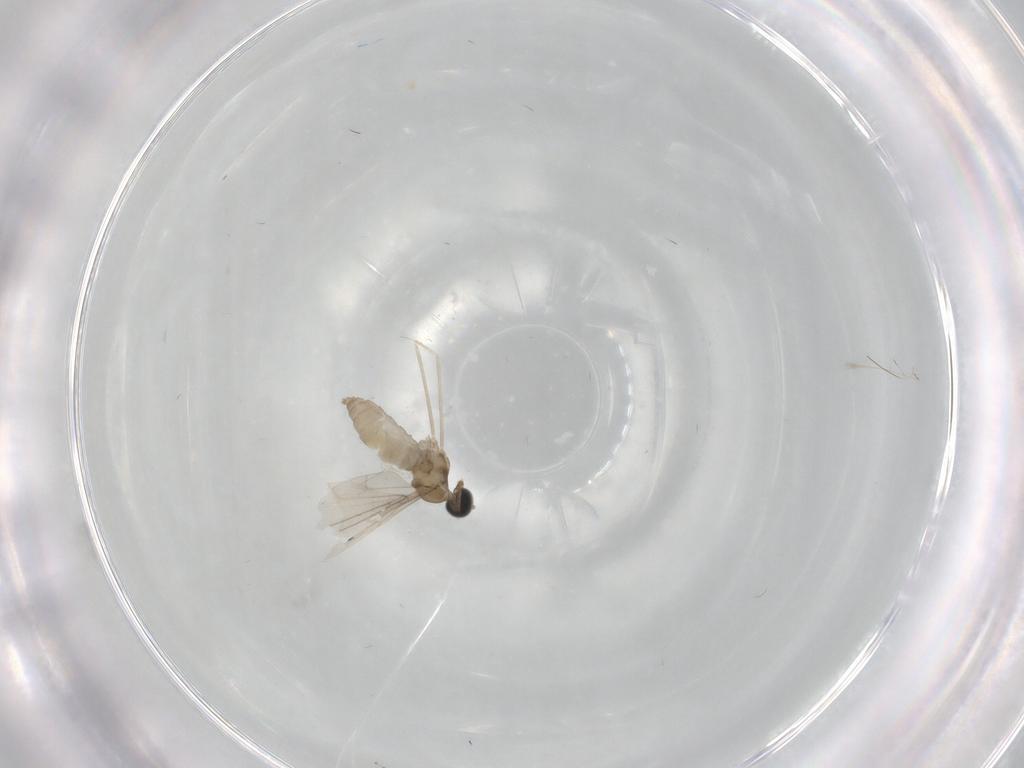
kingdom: Animalia
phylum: Arthropoda
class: Insecta
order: Diptera
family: Cecidomyiidae
